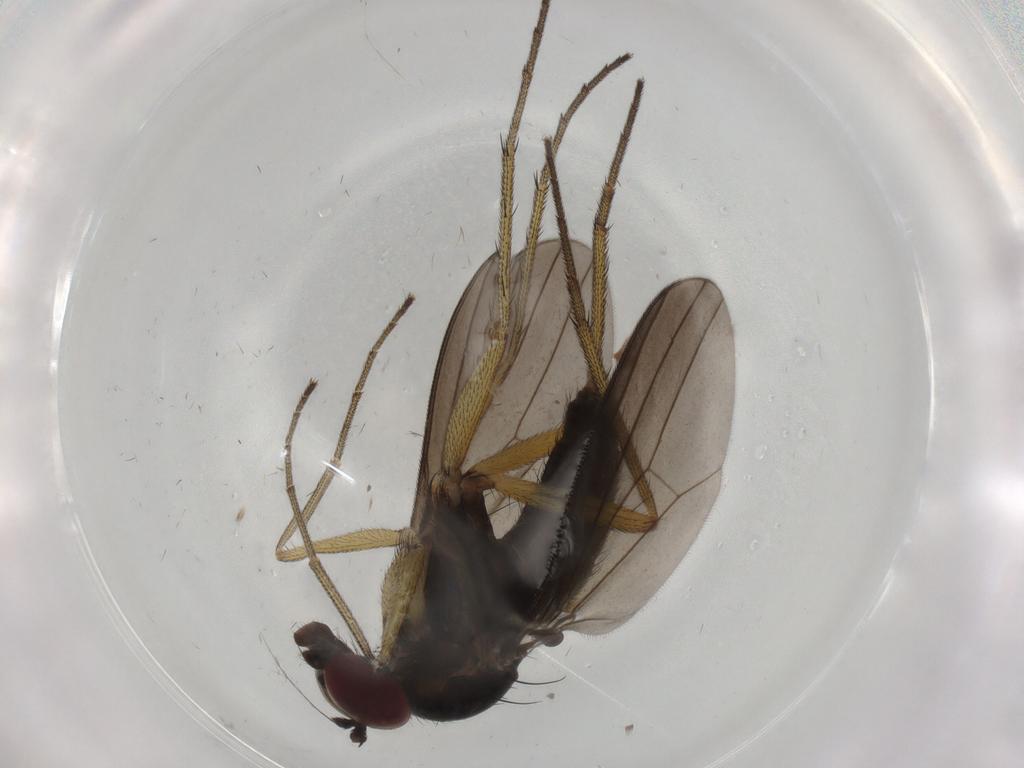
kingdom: Animalia
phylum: Arthropoda
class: Insecta
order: Diptera
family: Dolichopodidae
